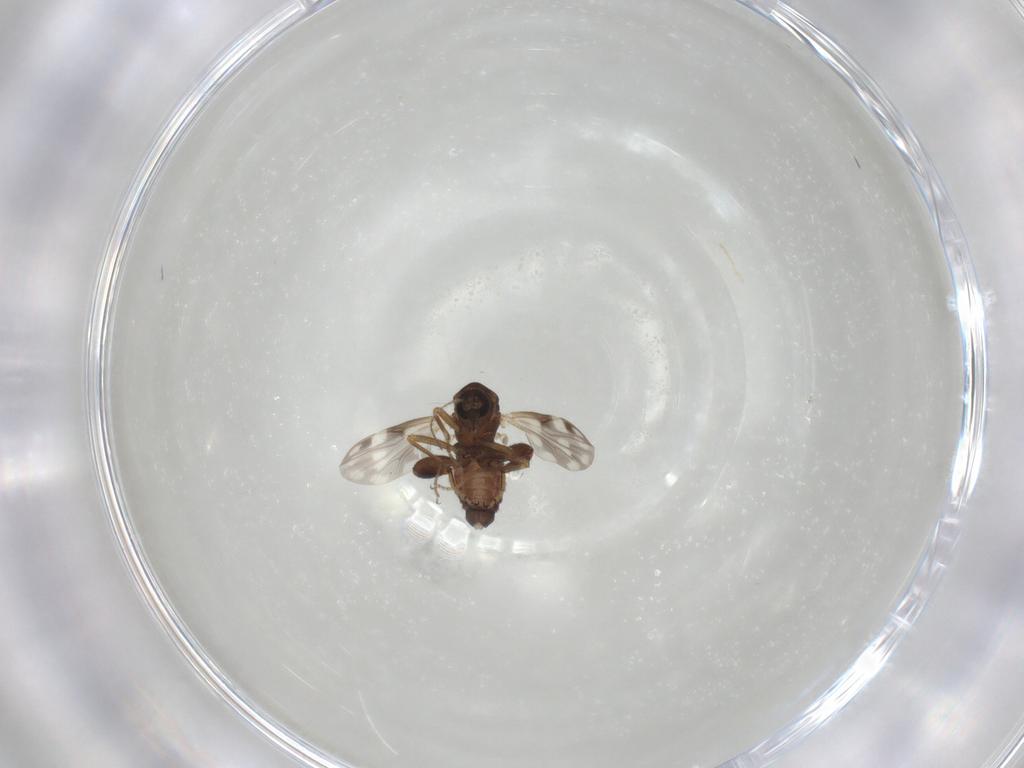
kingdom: Animalia
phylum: Arthropoda
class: Insecta
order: Diptera
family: Ceratopogonidae
